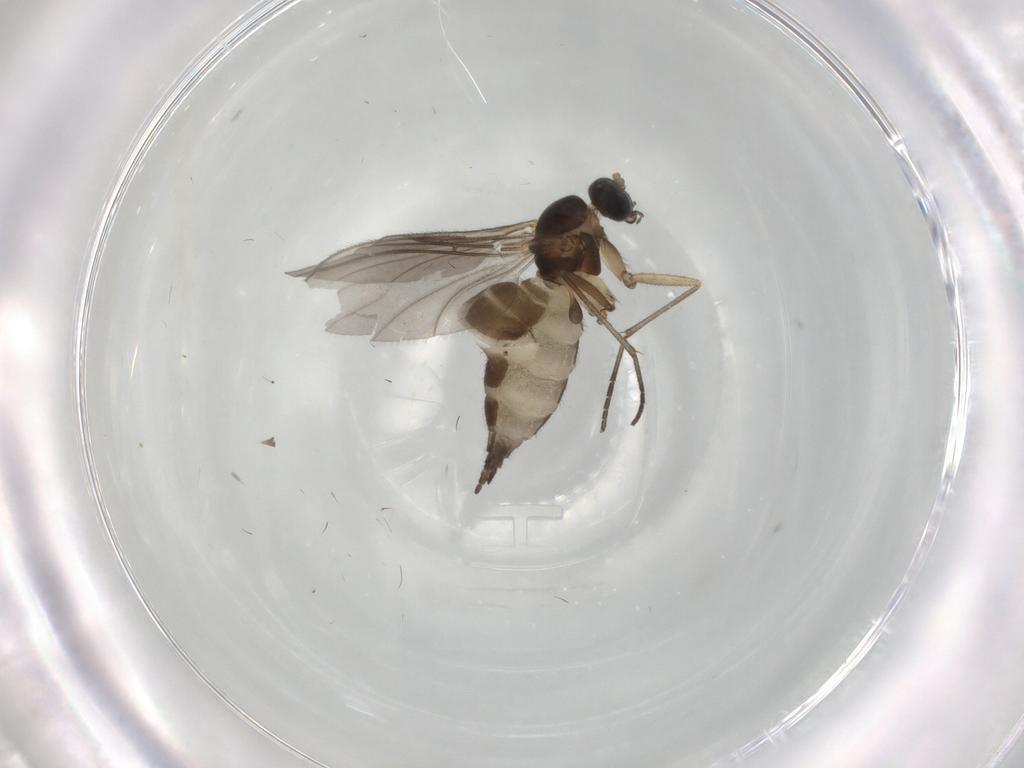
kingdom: Animalia
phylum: Arthropoda
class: Insecta
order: Diptera
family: Sciaridae
